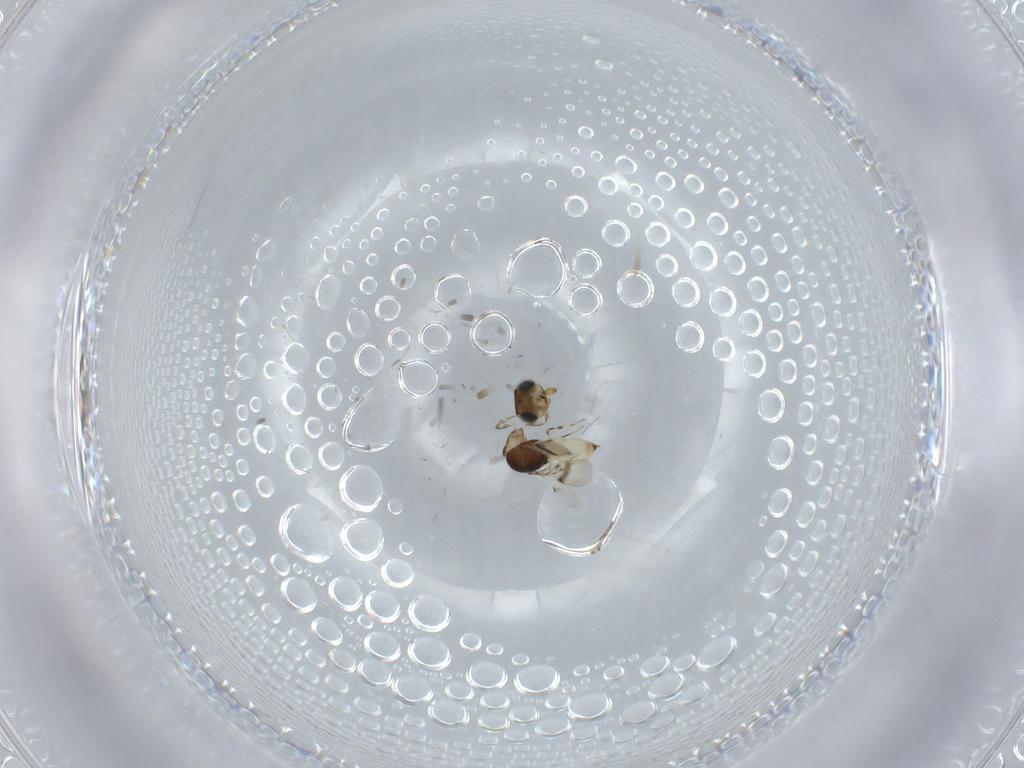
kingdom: Animalia
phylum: Arthropoda
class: Insecta
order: Hymenoptera
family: Scelionidae
